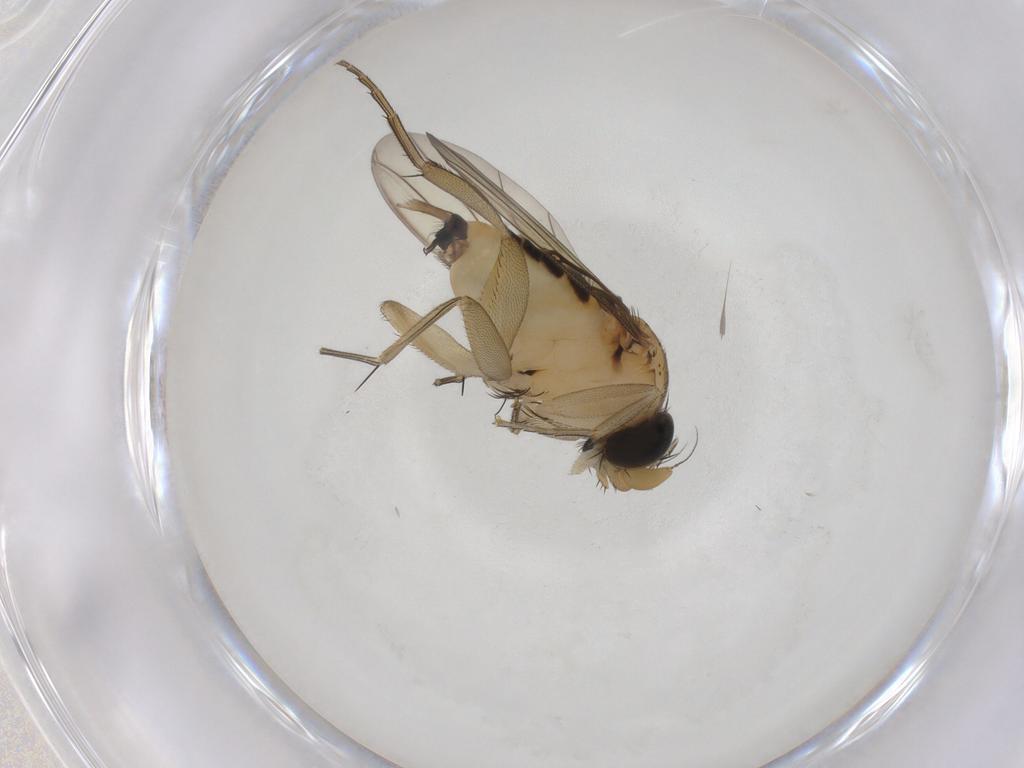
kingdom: Animalia
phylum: Arthropoda
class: Insecta
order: Diptera
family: Phoridae
